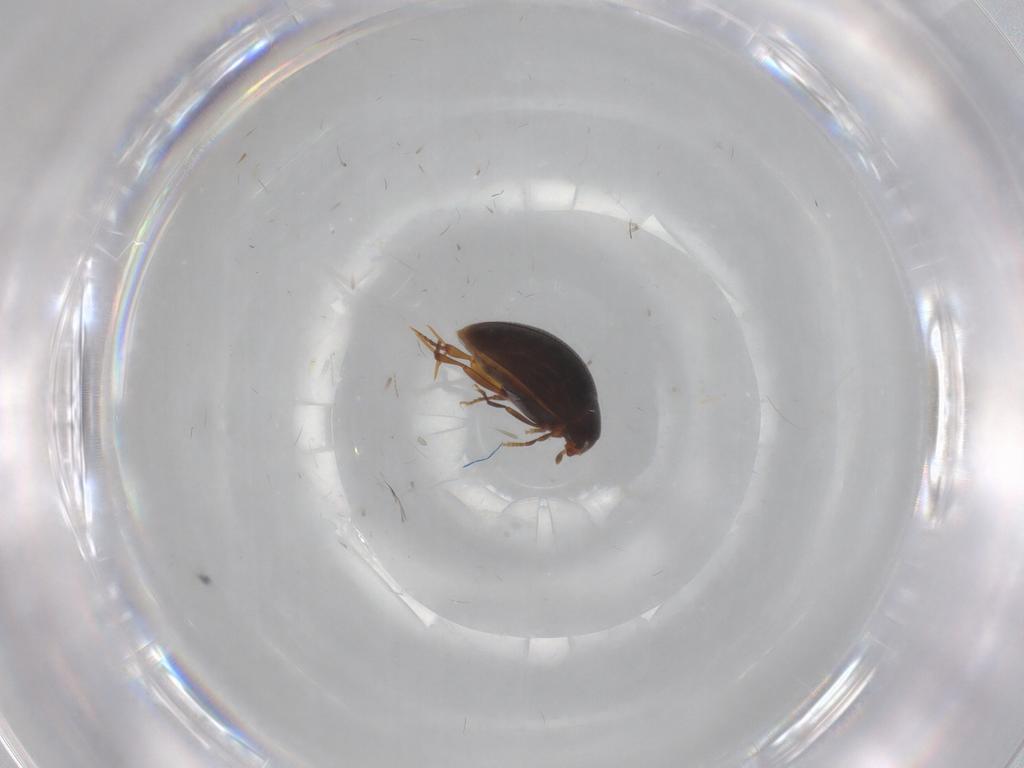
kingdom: Animalia
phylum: Arthropoda
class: Insecta
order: Coleoptera
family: Melandryidae
